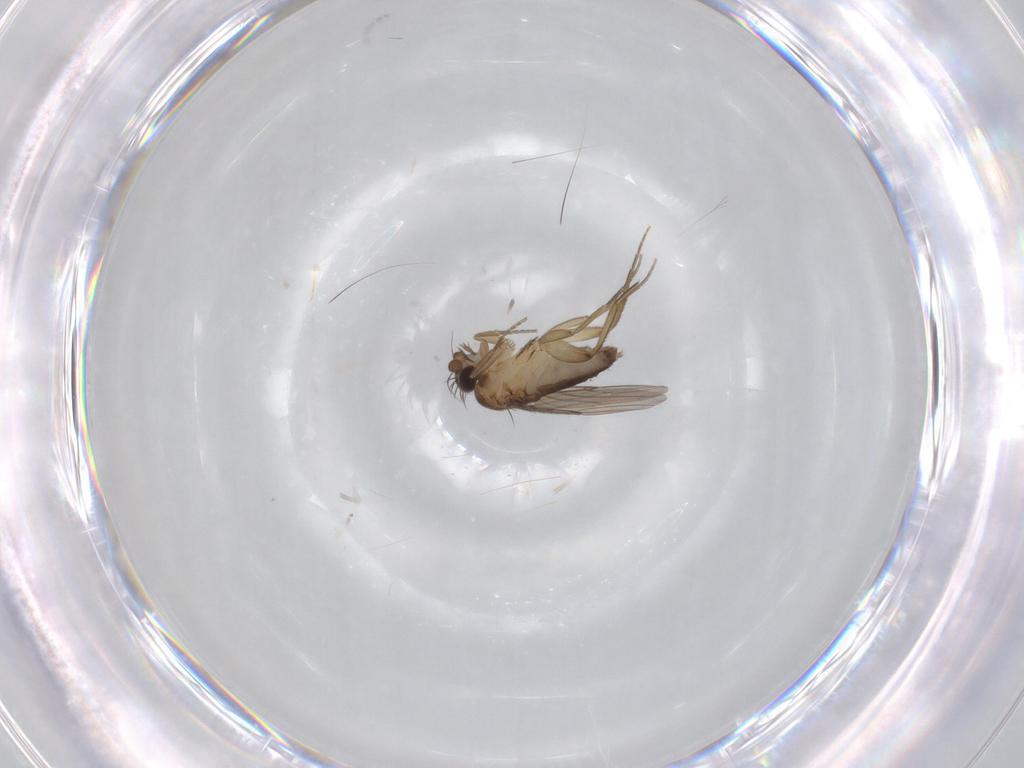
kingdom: Animalia
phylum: Arthropoda
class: Insecta
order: Diptera
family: Phoridae
